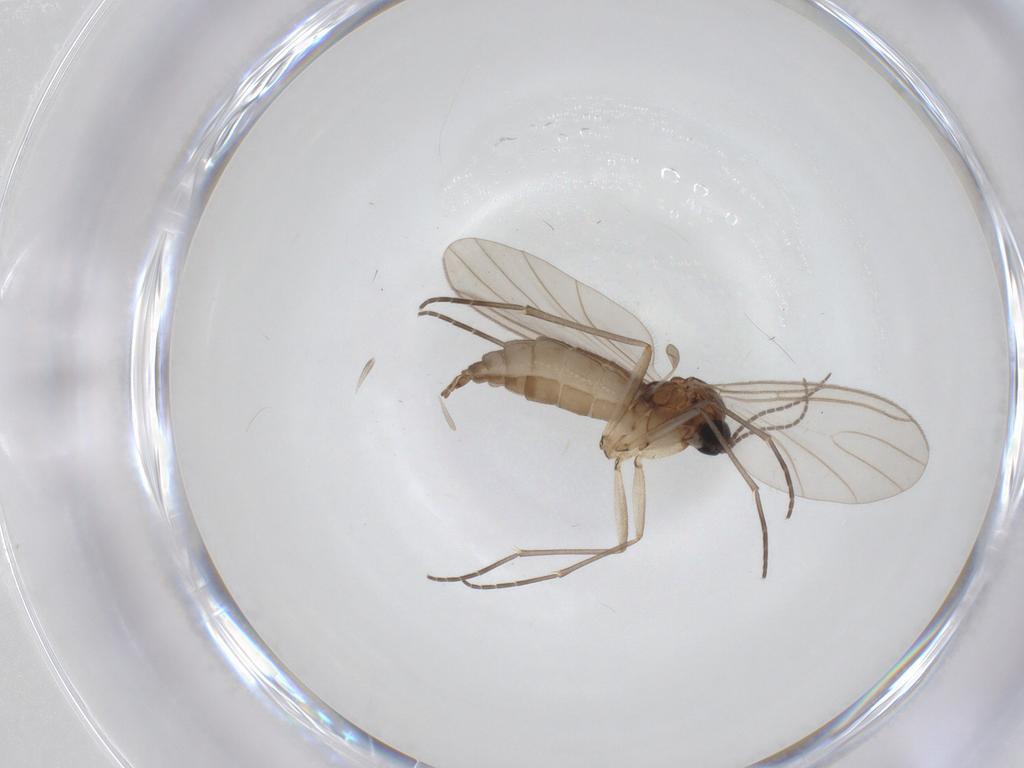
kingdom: Animalia
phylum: Arthropoda
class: Insecta
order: Diptera
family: Sciaridae
